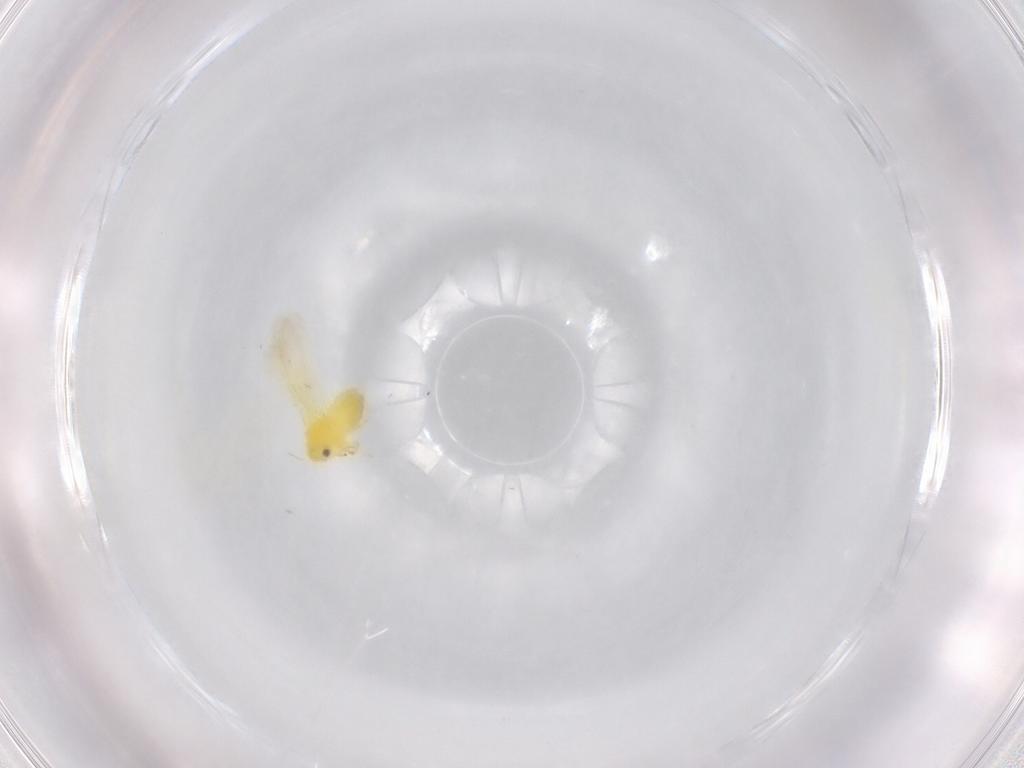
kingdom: Animalia
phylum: Arthropoda
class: Insecta
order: Hemiptera
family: Aleyrodidae
